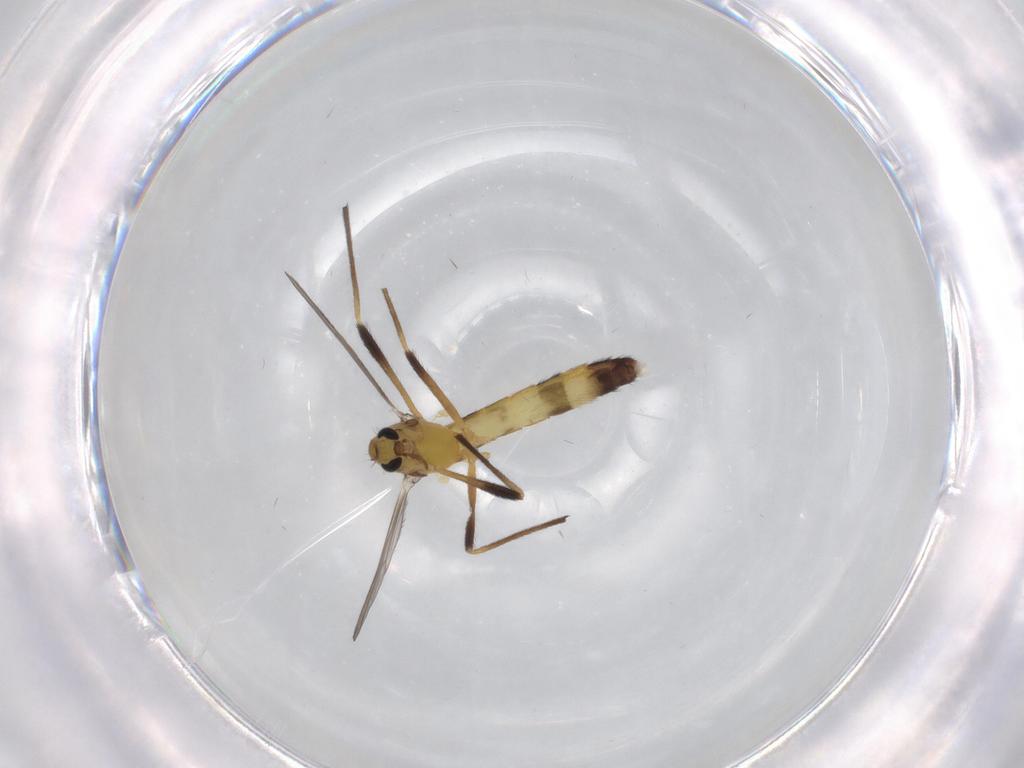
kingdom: Animalia
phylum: Arthropoda
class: Insecta
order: Diptera
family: Chironomidae
